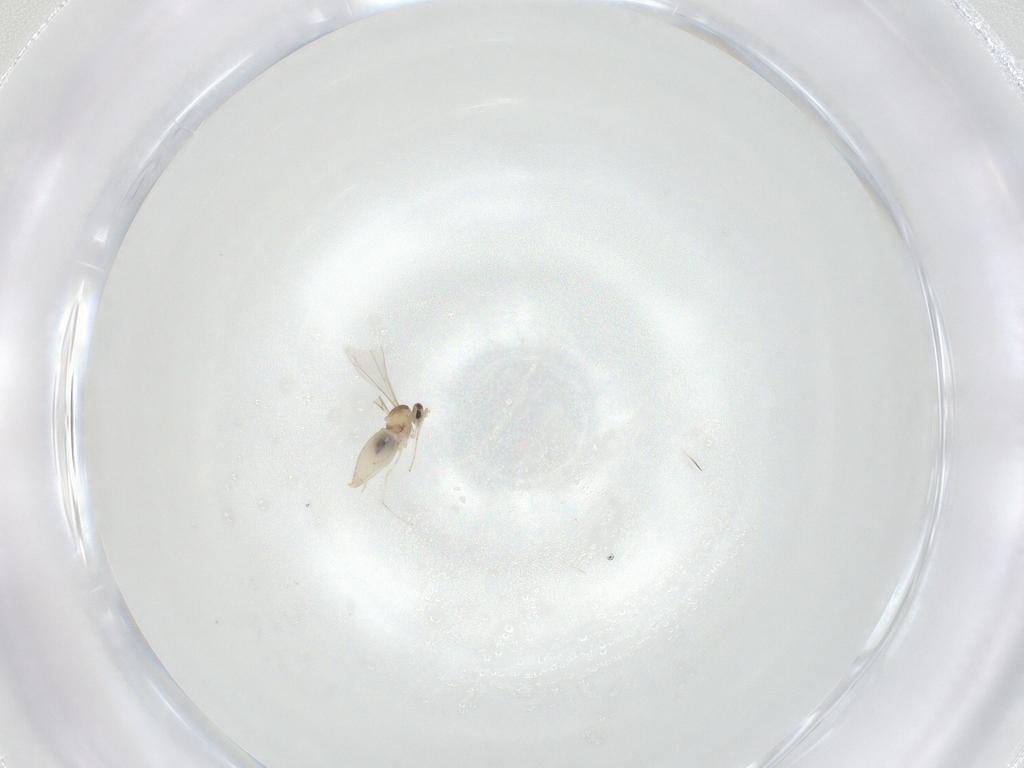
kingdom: Animalia
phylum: Arthropoda
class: Insecta
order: Diptera
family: Cecidomyiidae
